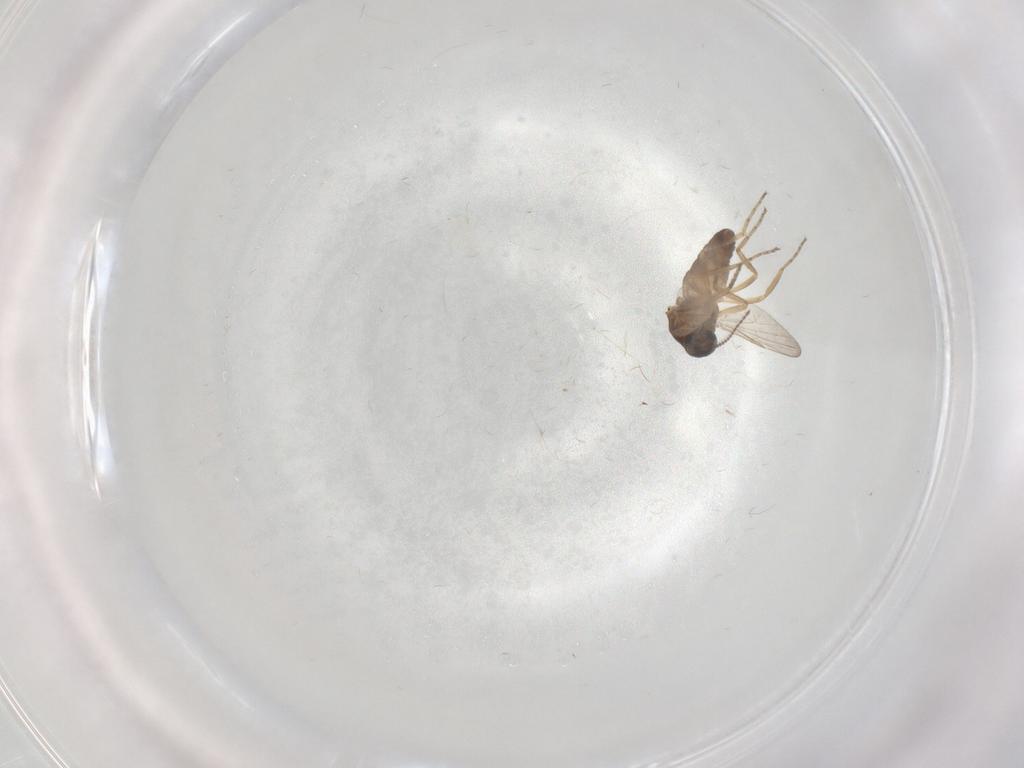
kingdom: Animalia
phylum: Arthropoda
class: Insecta
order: Diptera
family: Ceratopogonidae
